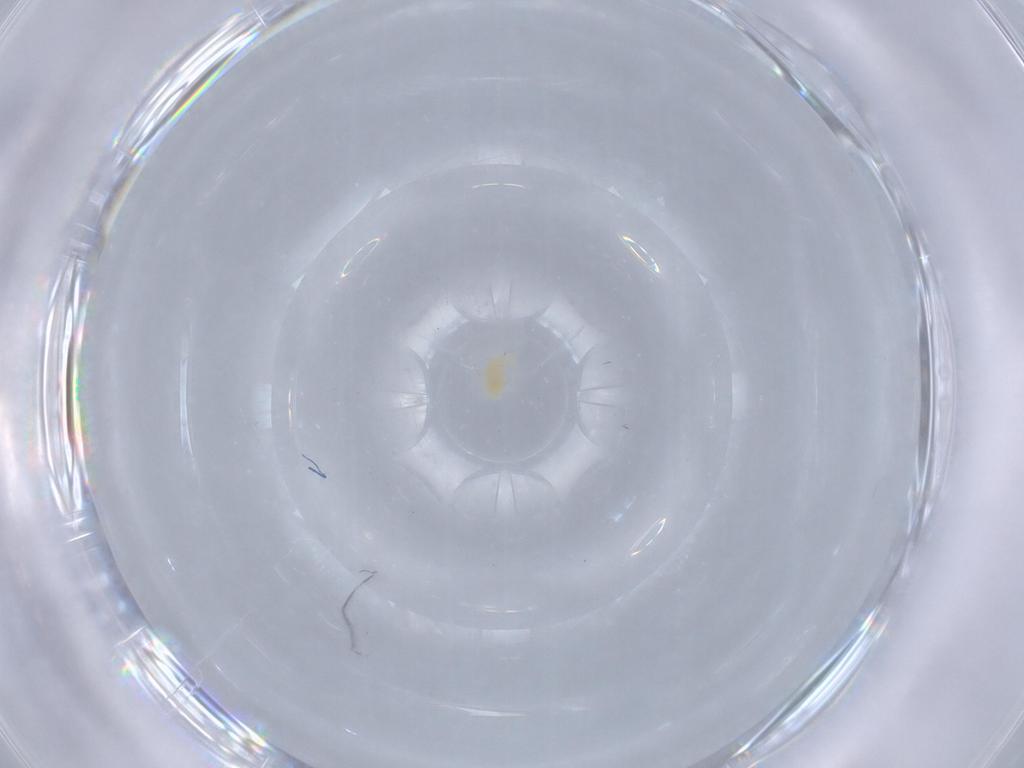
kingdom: Animalia
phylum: Arthropoda
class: Arachnida
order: Trombidiformes
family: Tetranychidae
